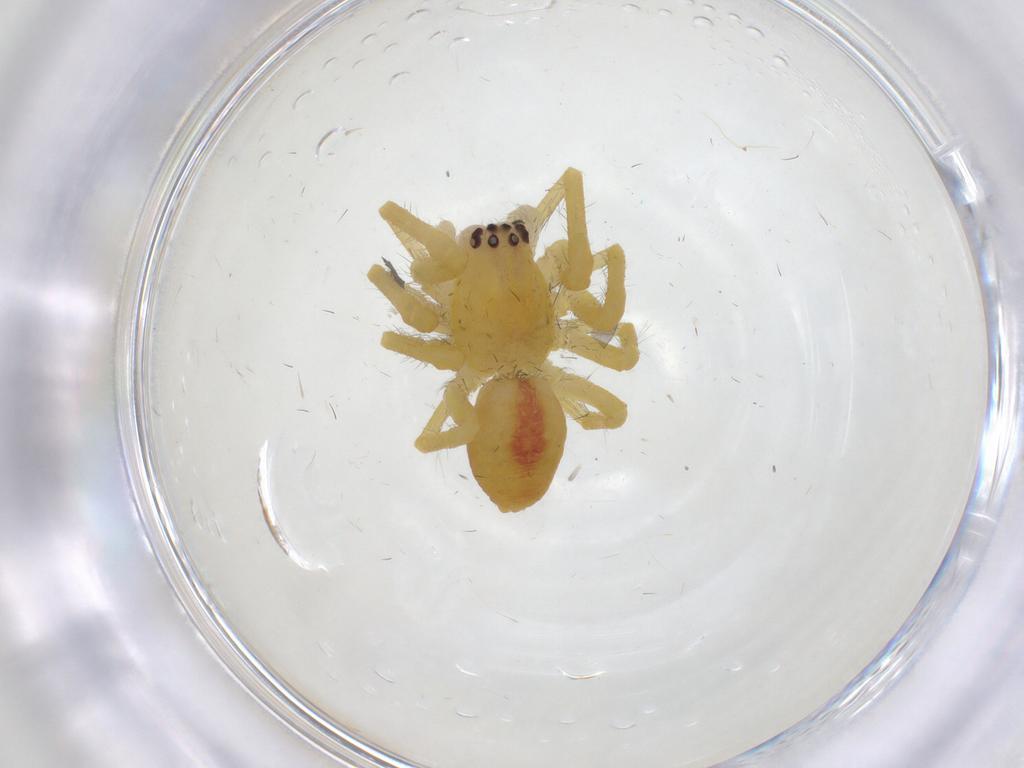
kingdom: Animalia
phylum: Arthropoda
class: Arachnida
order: Araneae
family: Mimetidae
